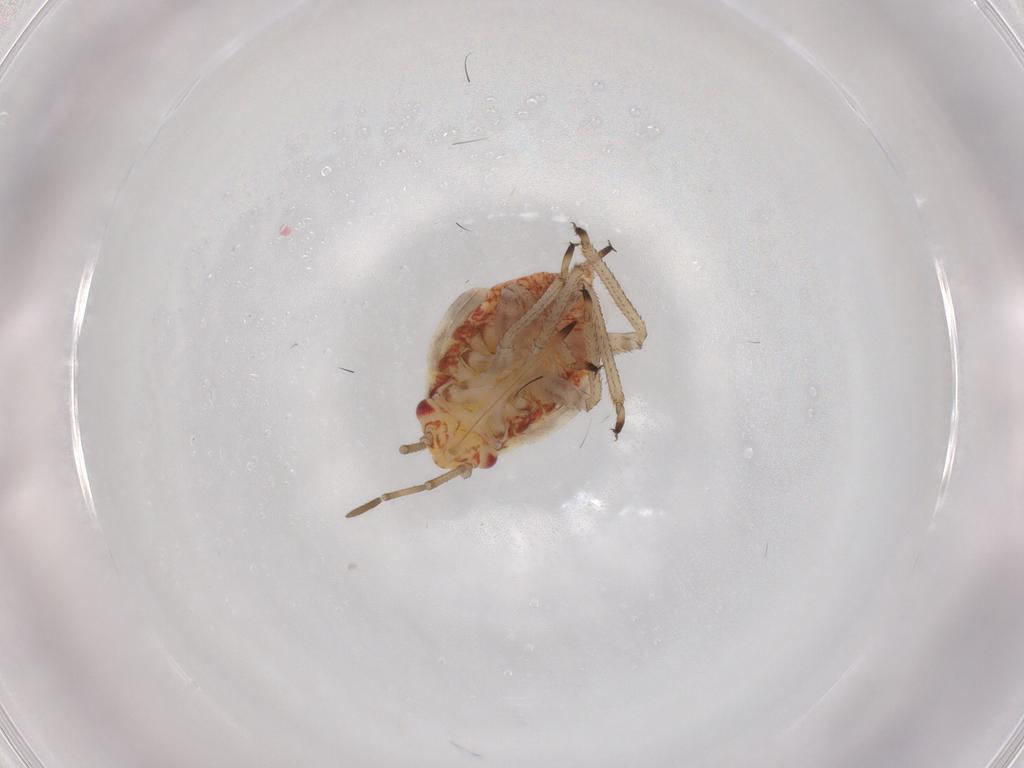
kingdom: Animalia
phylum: Arthropoda
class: Insecta
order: Hemiptera
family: Miridae
